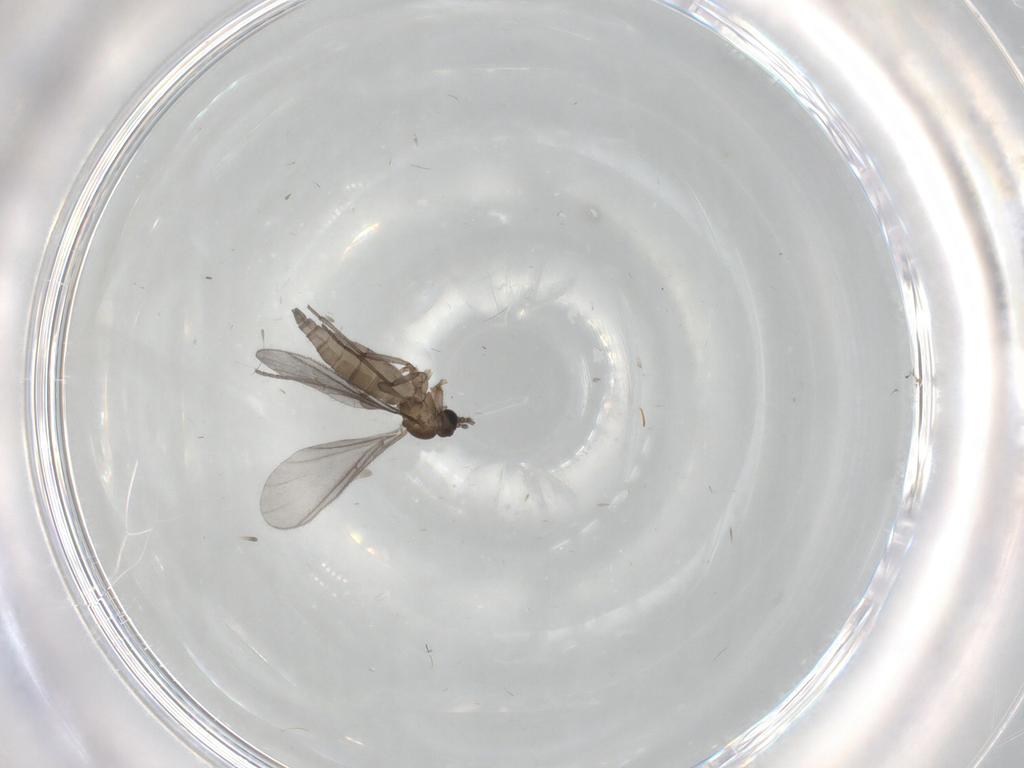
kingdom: Animalia
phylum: Arthropoda
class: Insecta
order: Diptera
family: Sciaridae
